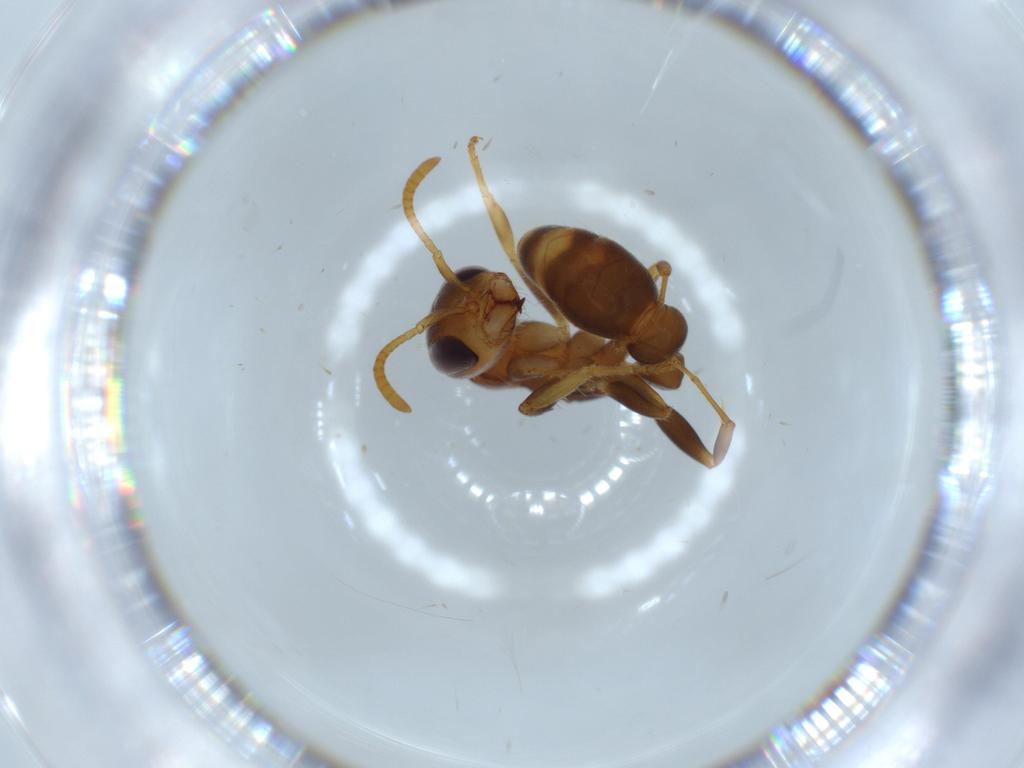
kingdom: Animalia
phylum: Arthropoda
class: Insecta
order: Hymenoptera
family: Formicidae
